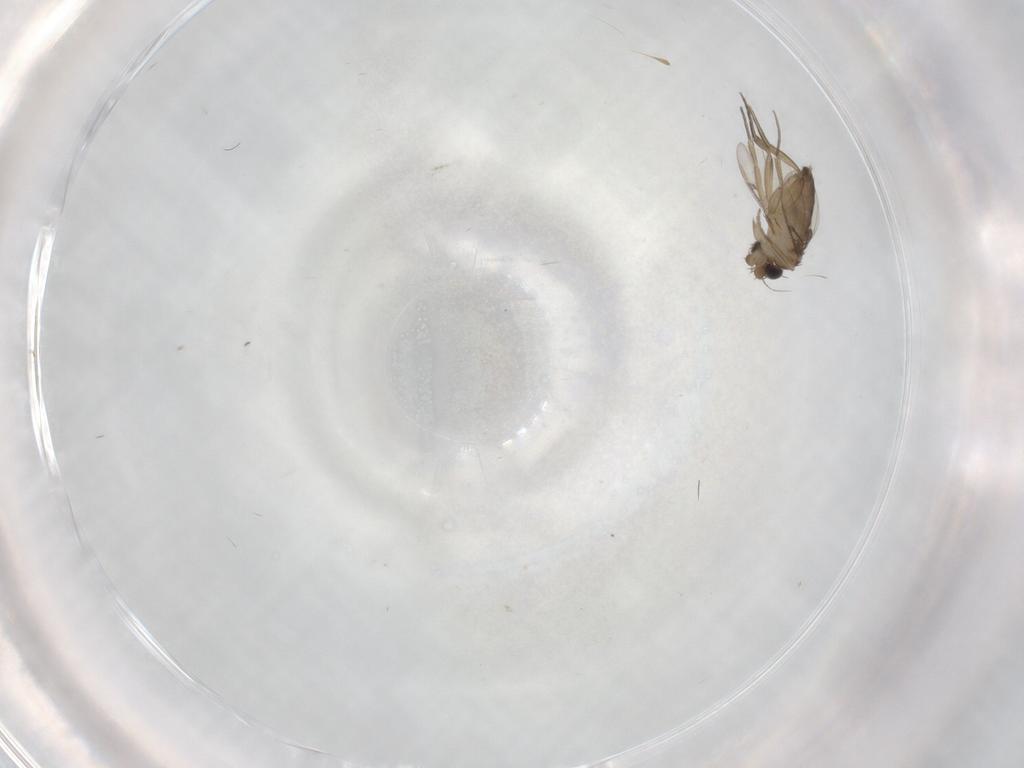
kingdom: Animalia
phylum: Arthropoda
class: Insecta
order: Diptera
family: Phoridae
